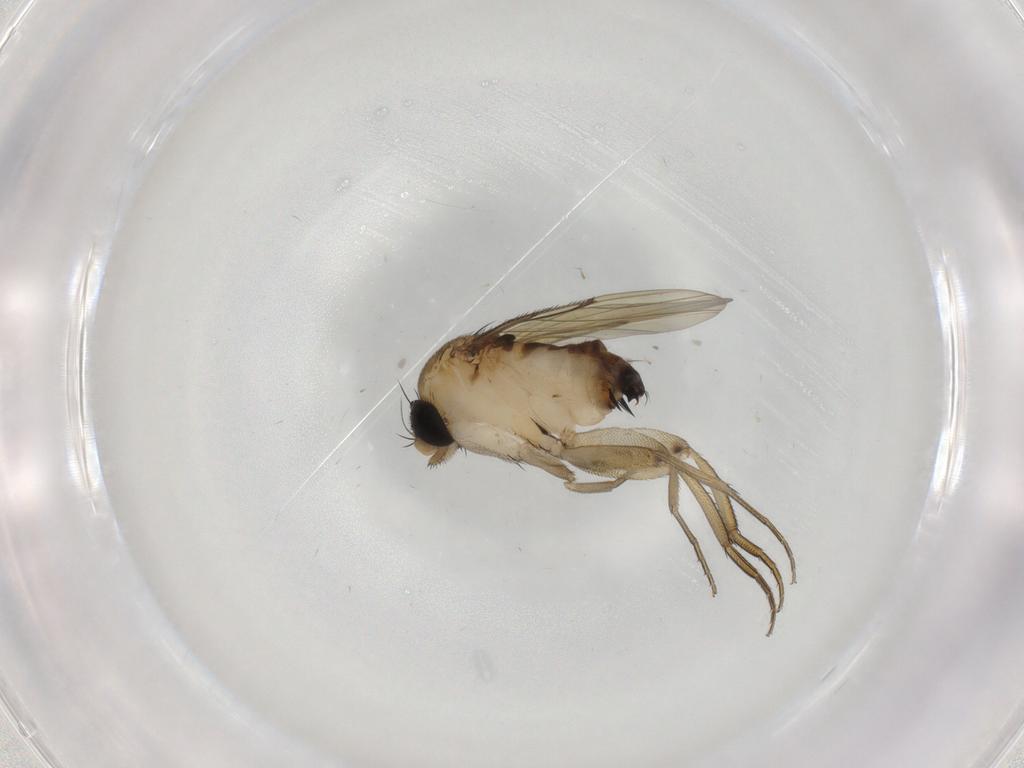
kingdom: Animalia
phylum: Arthropoda
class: Insecta
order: Diptera
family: Phoridae
